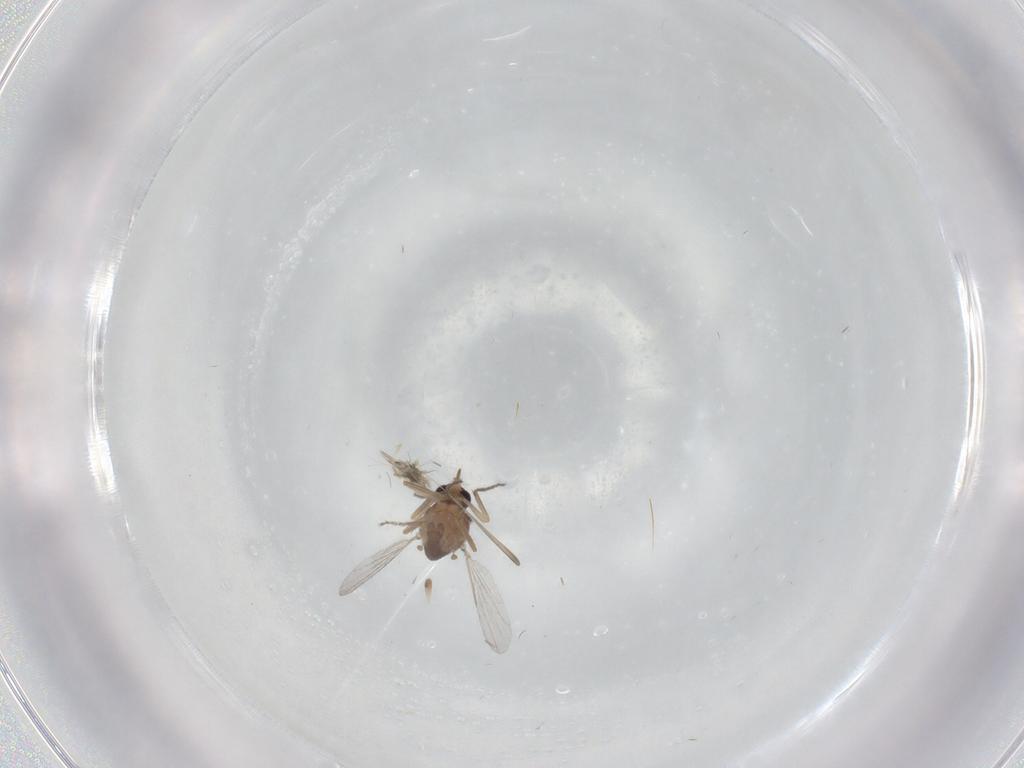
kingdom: Animalia
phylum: Arthropoda
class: Insecta
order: Diptera
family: Ceratopogonidae
